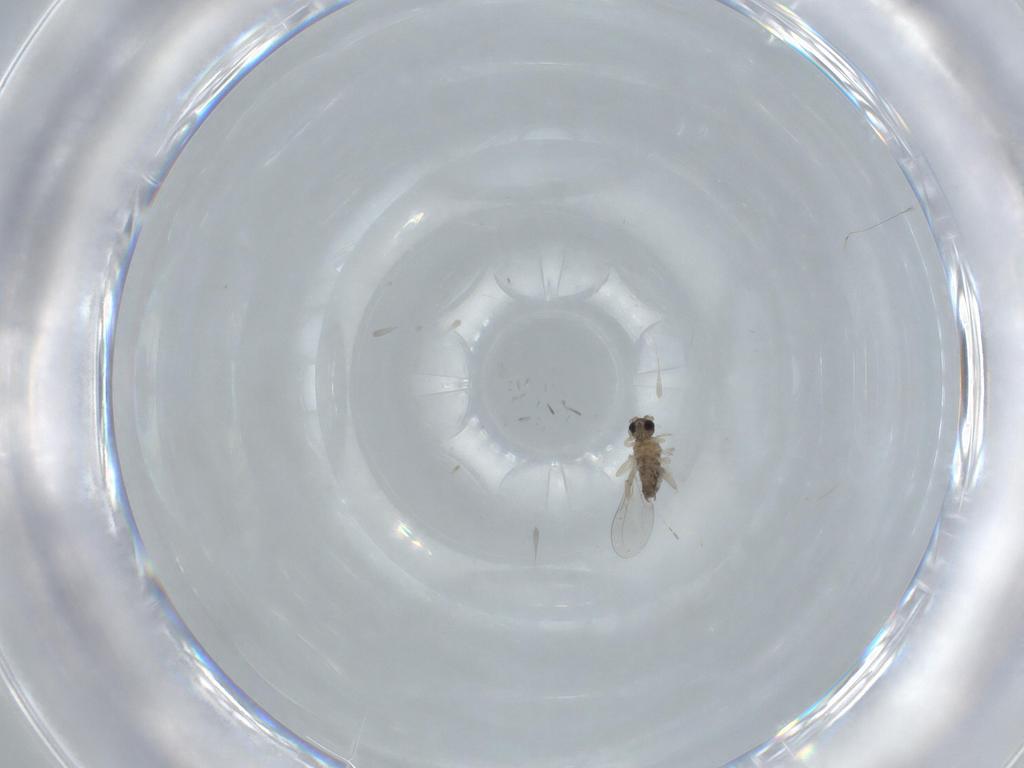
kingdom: Animalia
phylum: Arthropoda
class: Insecta
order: Diptera
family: Cecidomyiidae
